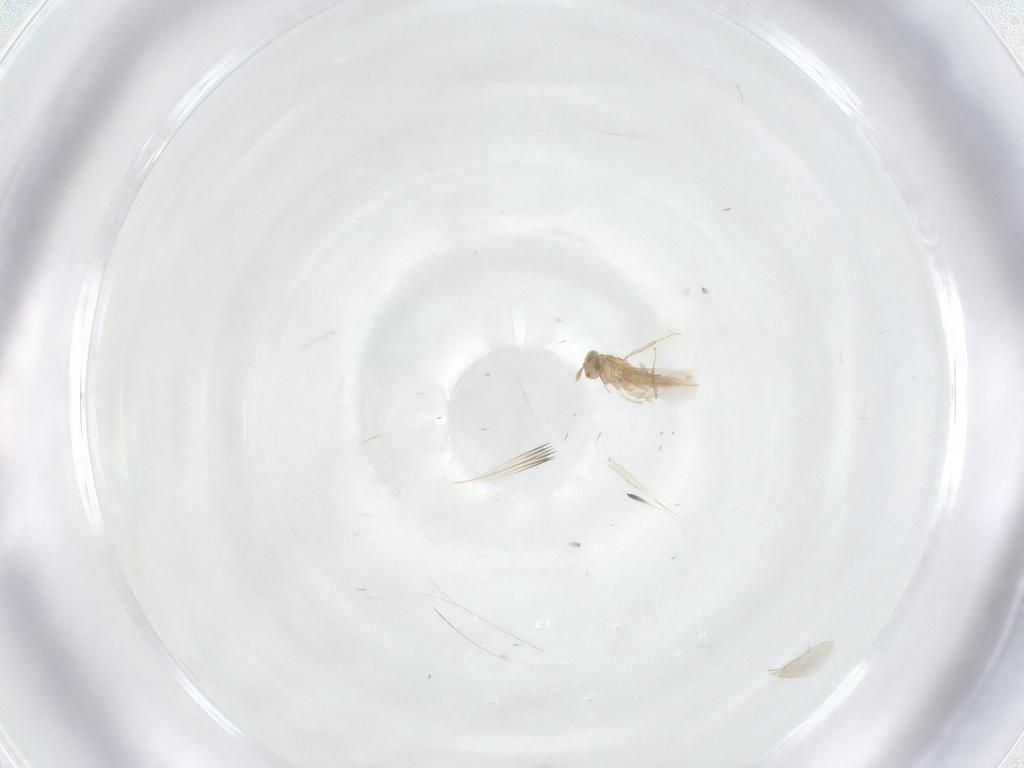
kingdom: Animalia
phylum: Arthropoda
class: Insecta
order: Hymenoptera
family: Aphelinidae
